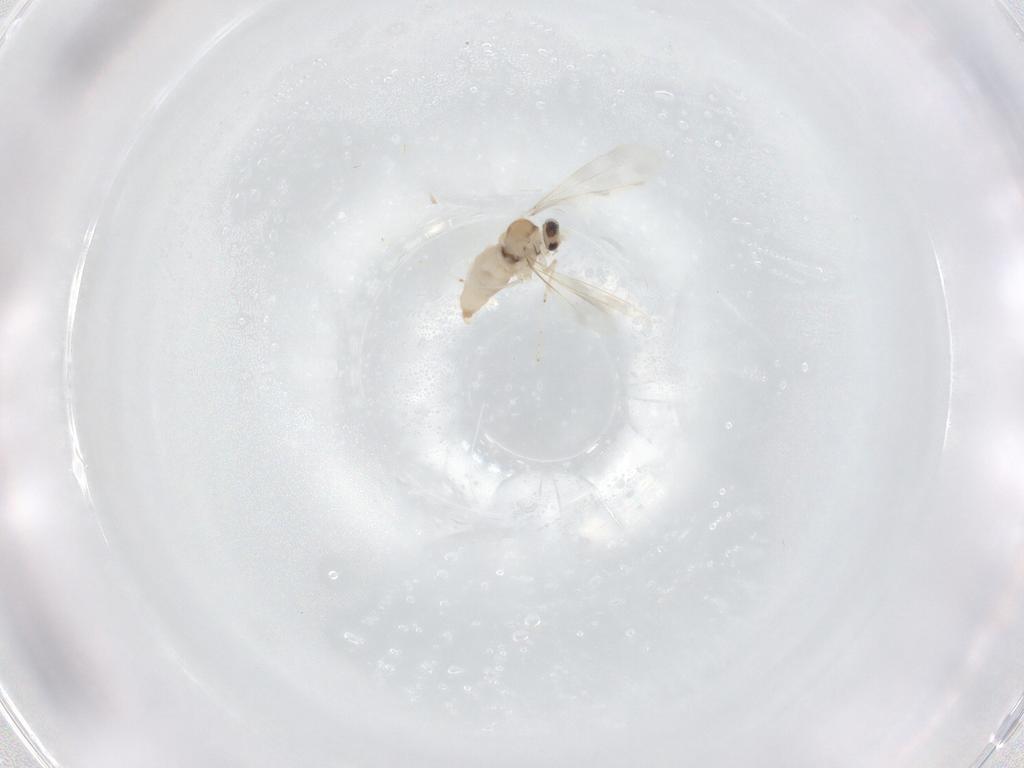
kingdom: Animalia
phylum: Arthropoda
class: Insecta
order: Diptera
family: Cecidomyiidae
